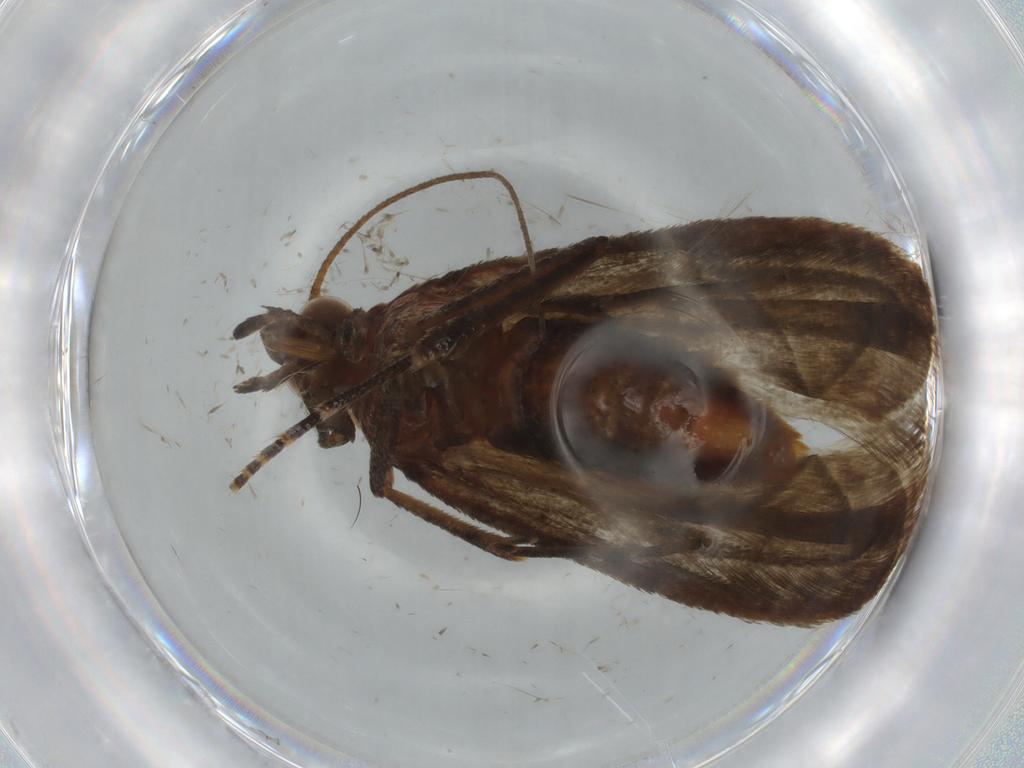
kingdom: Animalia
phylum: Arthropoda
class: Insecta
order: Lepidoptera
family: Pyralidae
